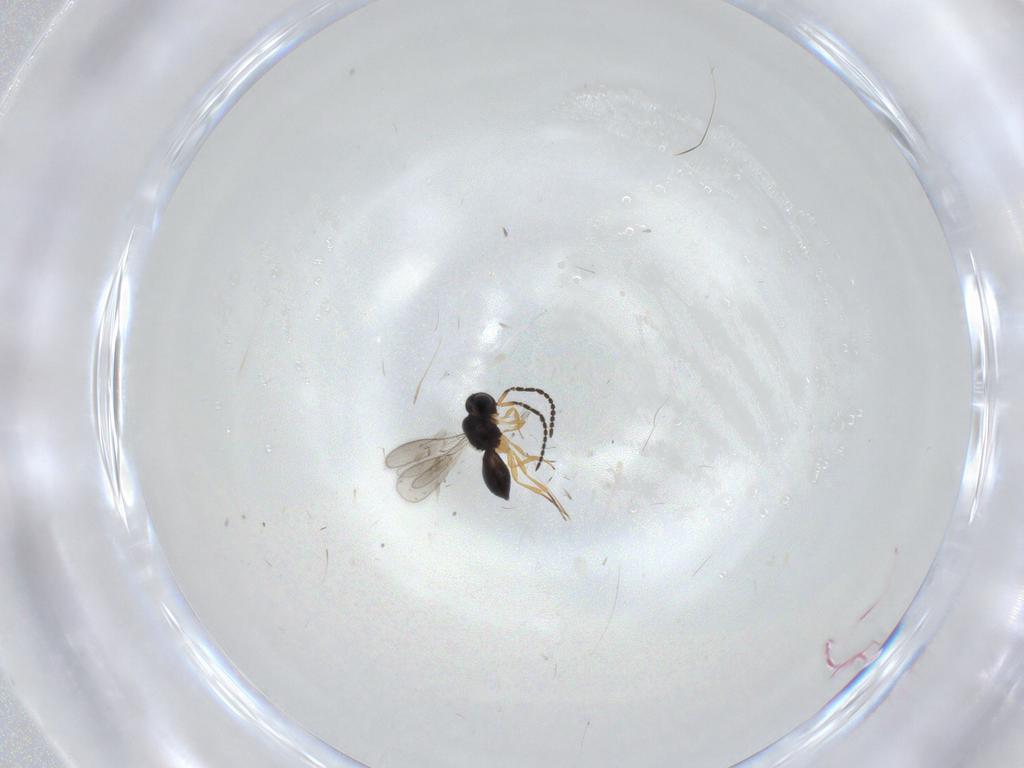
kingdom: Animalia
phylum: Arthropoda
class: Insecta
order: Hymenoptera
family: Scelionidae
